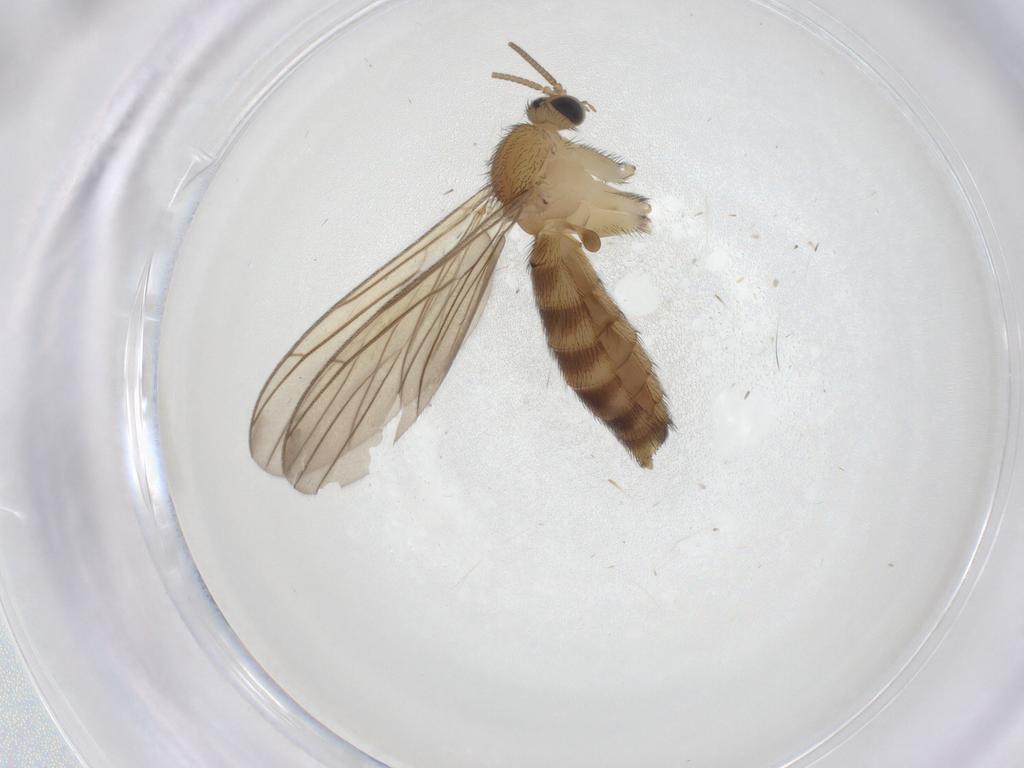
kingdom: Animalia
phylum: Arthropoda
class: Insecta
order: Diptera
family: Keroplatidae
